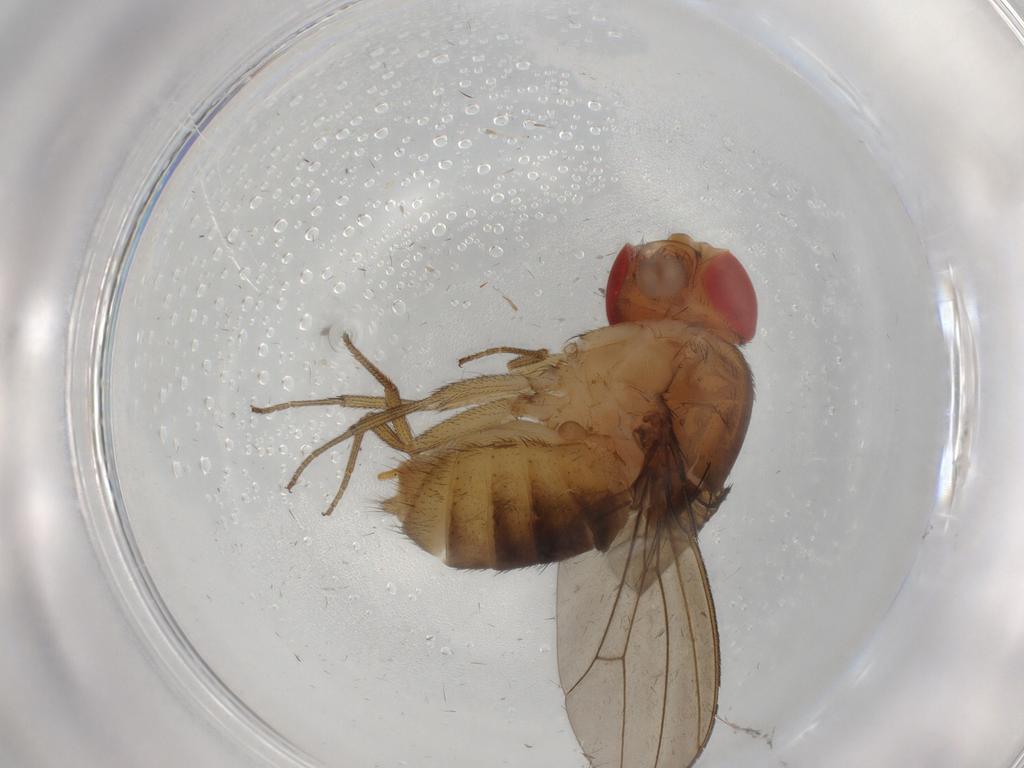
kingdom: Animalia
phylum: Arthropoda
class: Insecta
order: Diptera
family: Drosophilidae
